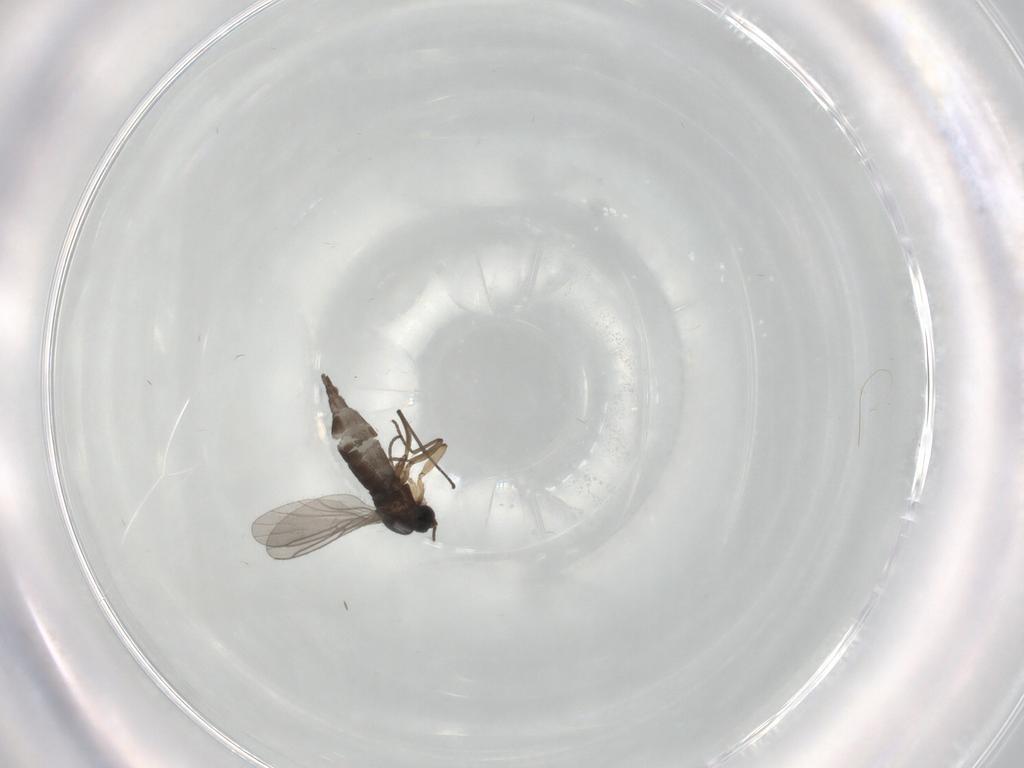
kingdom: Animalia
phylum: Arthropoda
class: Insecta
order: Diptera
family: Sciaridae
